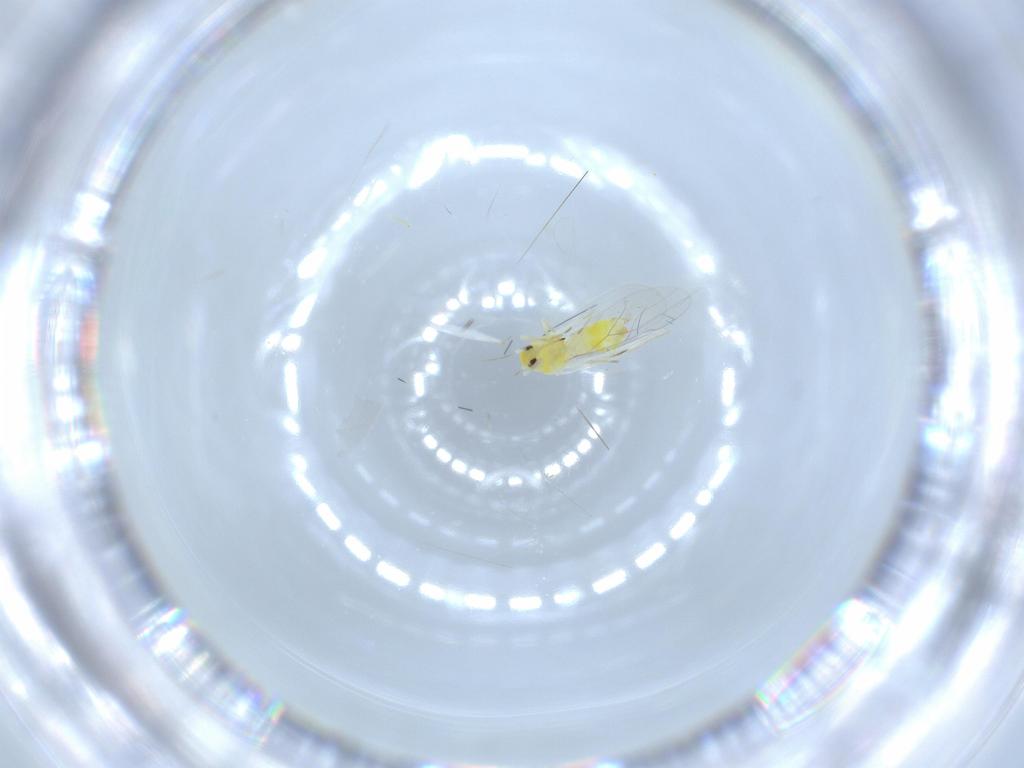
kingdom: Animalia
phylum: Arthropoda
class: Insecta
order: Hemiptera
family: Aleyrodidae
